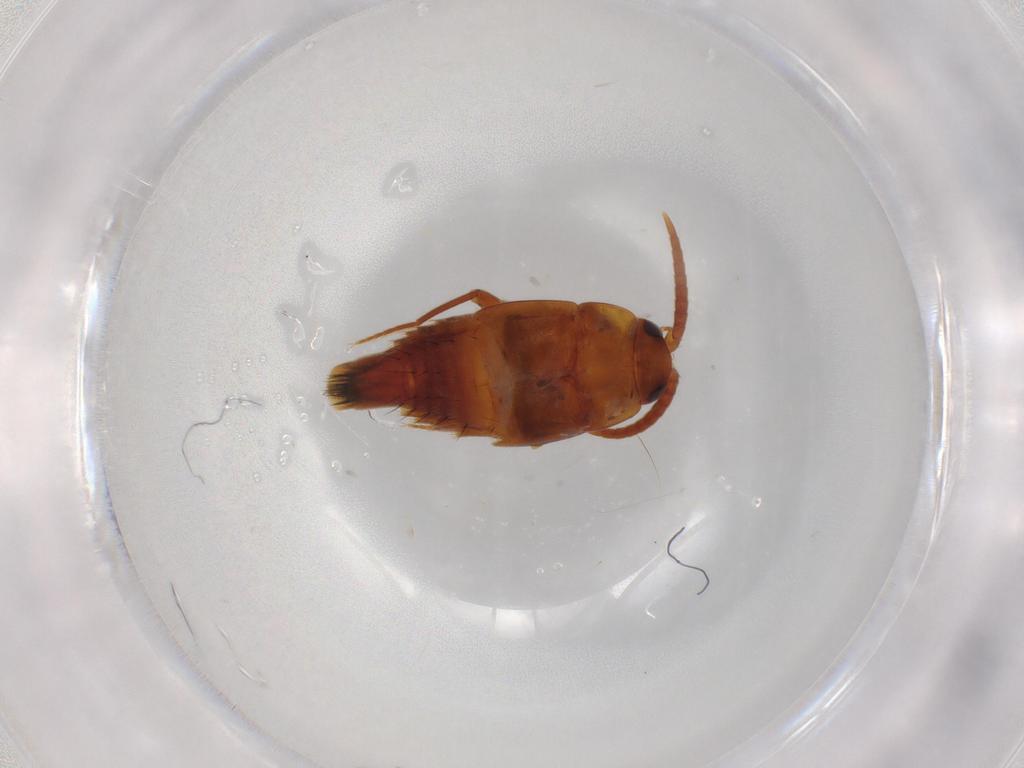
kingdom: Animalia
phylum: Arthropoda
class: Insecta
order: Coleoptera
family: Staphylinidae
